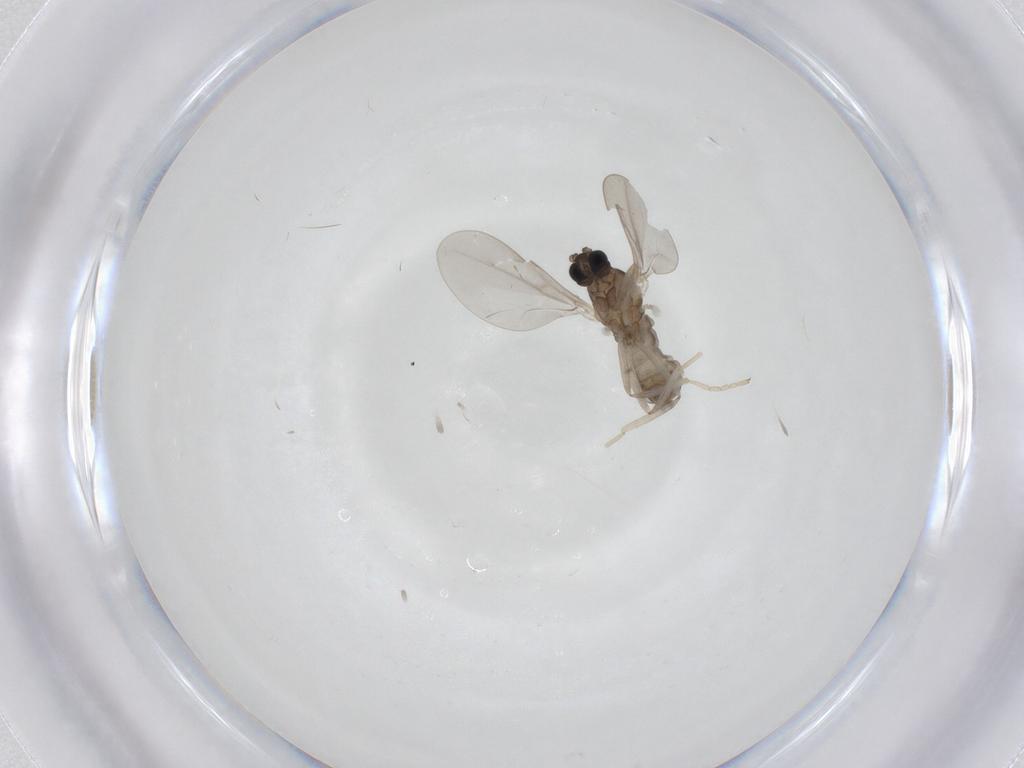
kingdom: Animalia
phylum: Arthropoda
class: Insecta
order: Diptera
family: Cecidomyiidae
